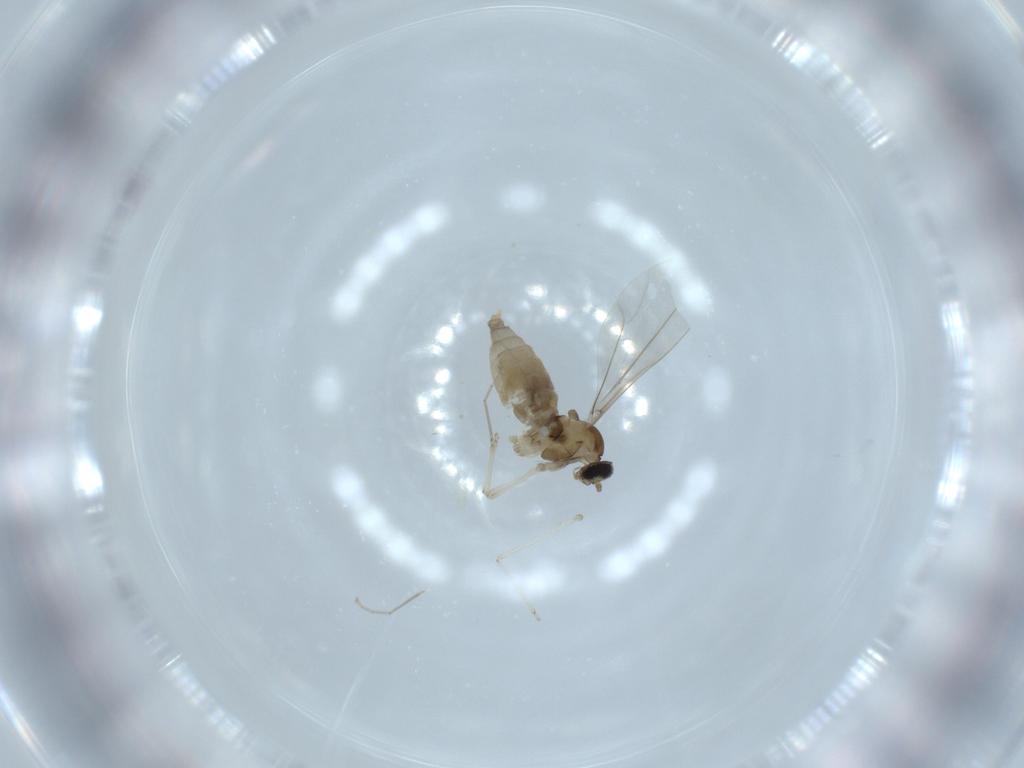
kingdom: Animalia
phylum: Arthropoda
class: Insecta
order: Diptera
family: Cecidomyiidae
